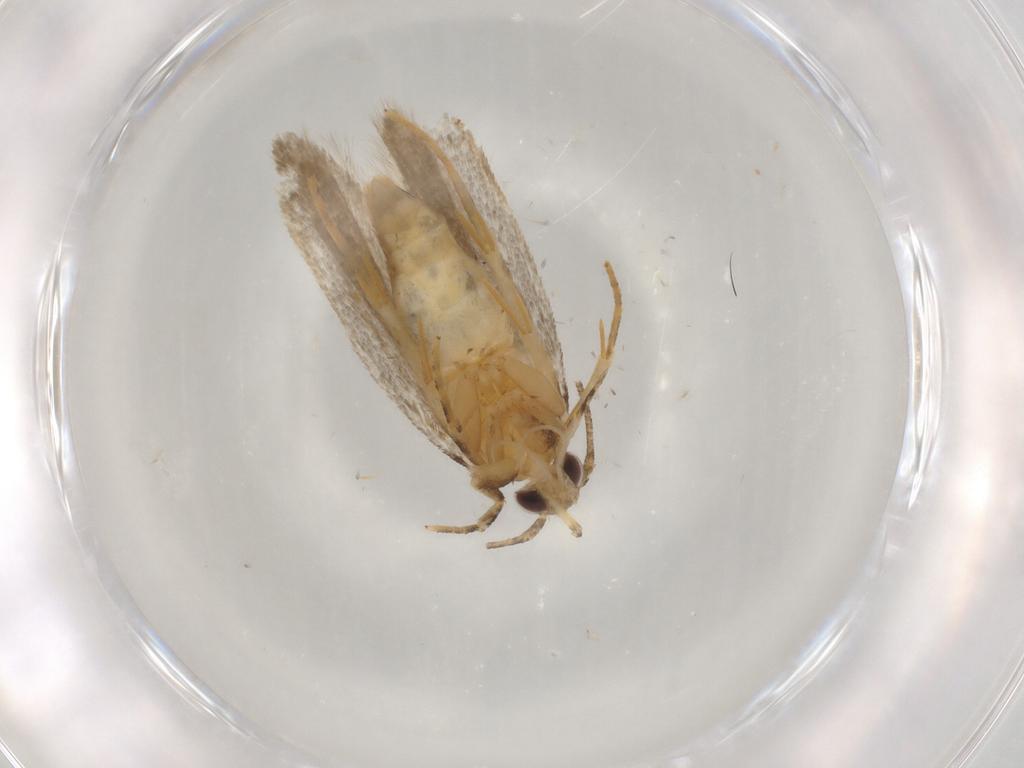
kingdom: Animalia
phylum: Arthropoda
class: Insecta
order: Lepidoptera
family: Autostichidae
